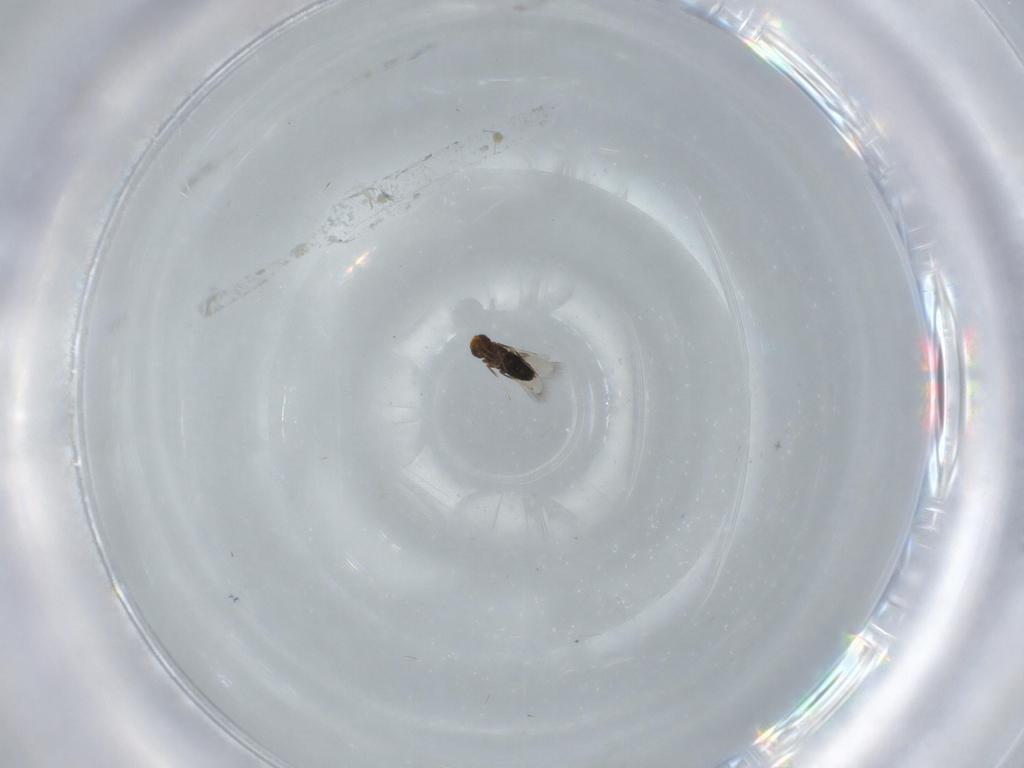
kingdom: Animalia
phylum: Arthropoda
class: Insecta
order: Hymenoptera
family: Signiphoridae
